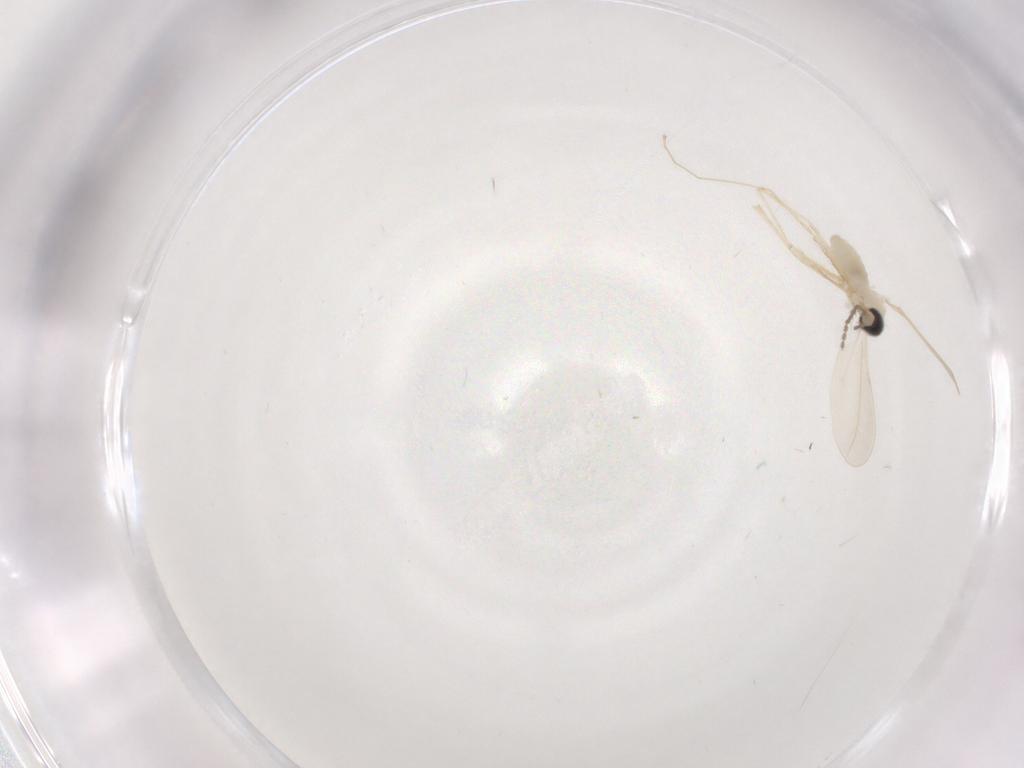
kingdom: Animalia
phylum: Arthropoda
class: Insecta
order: Diptera
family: Cecidomyiidae
